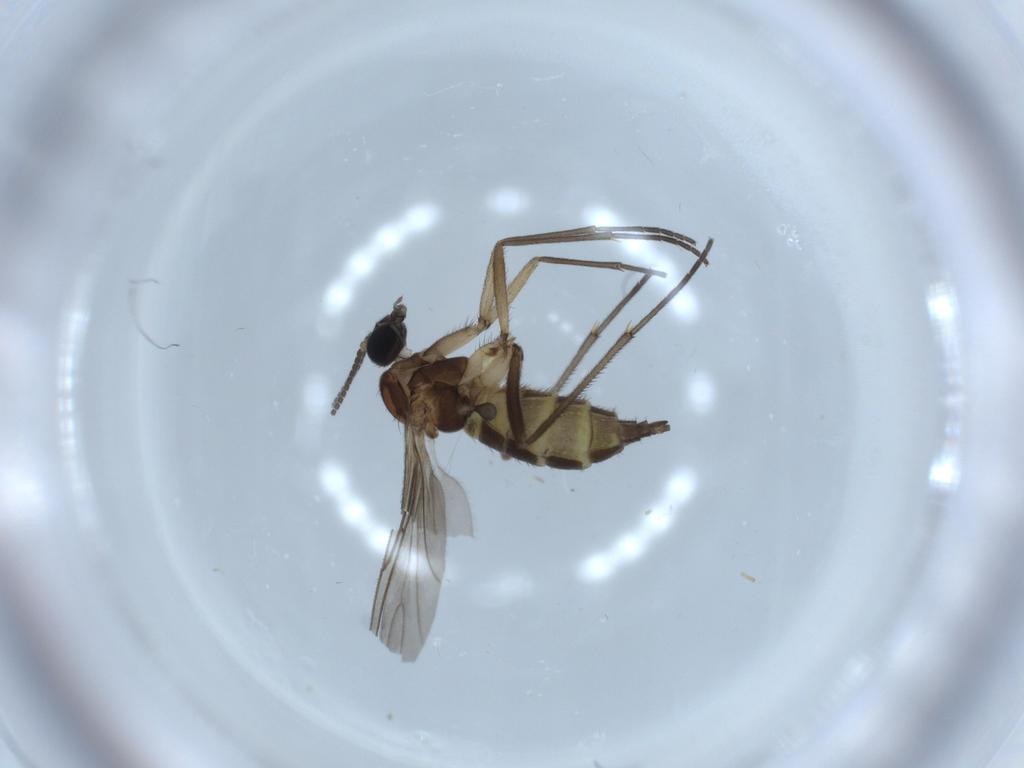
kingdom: Animalia
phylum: Arthropoda
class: Insecta
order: Diptera
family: Sciaridae
